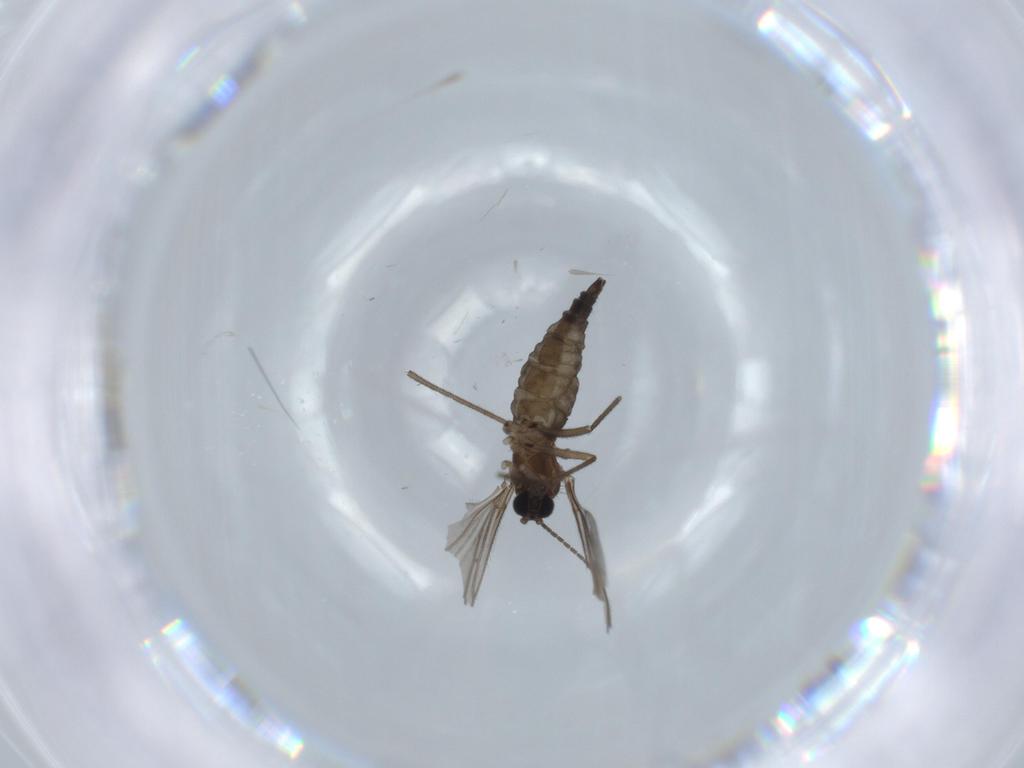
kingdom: Animalia
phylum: Arthropoda
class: Insecta
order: Diptera
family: Sciaridae
